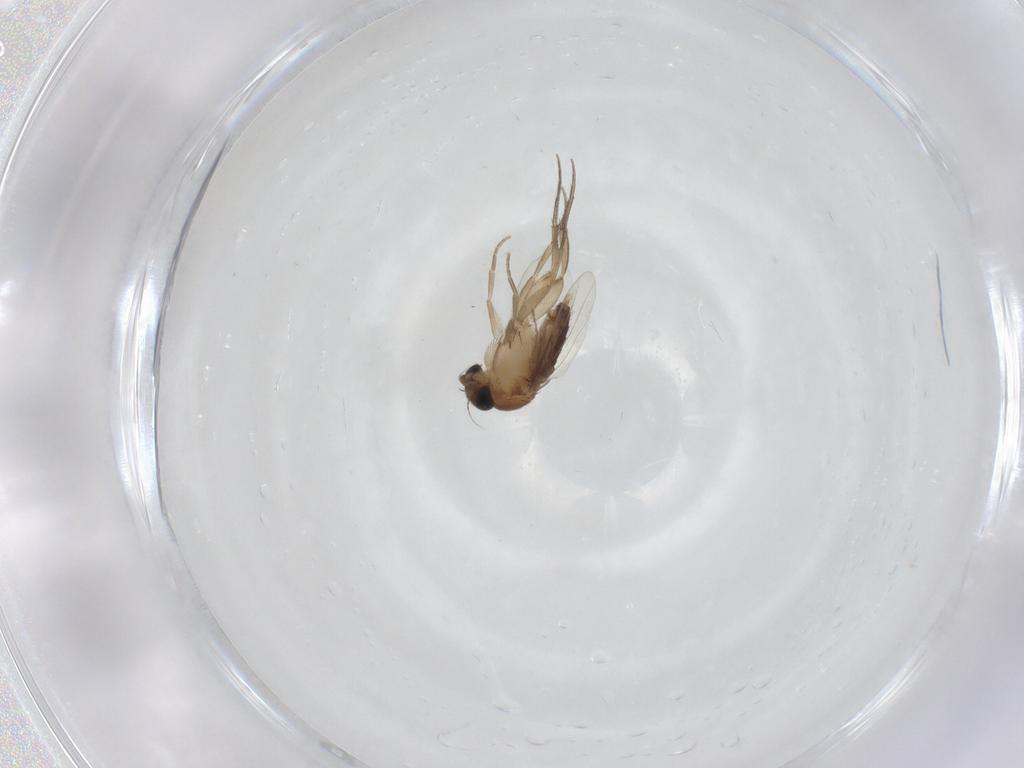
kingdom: Animalia
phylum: Arthropoda
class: Insecta
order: Diptera
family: Phoridae
